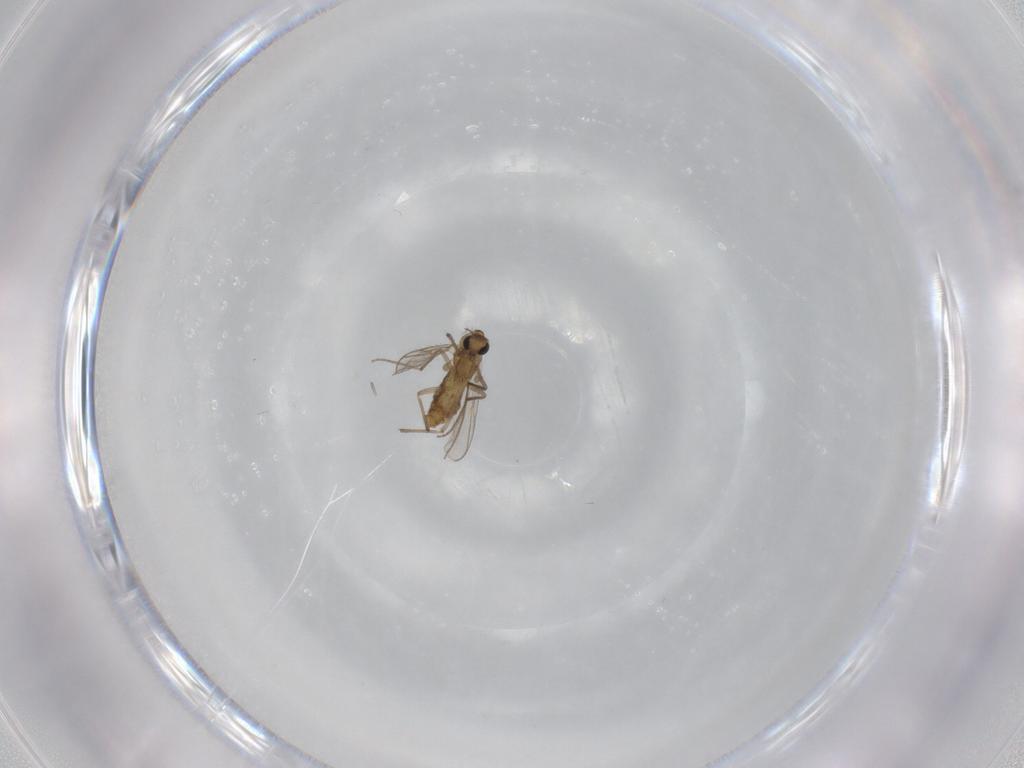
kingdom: Animalia
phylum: Arthropoda
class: Insecta
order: Diptera
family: Chironomidae
